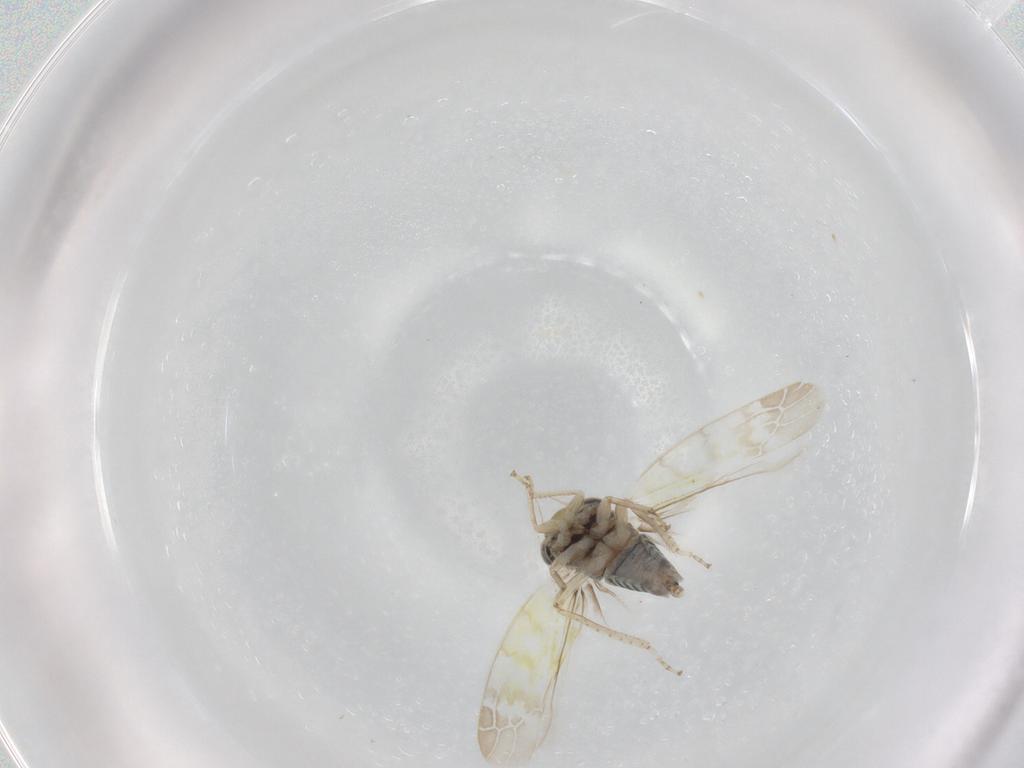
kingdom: Animalia
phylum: Arthropoda
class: Insecta
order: Hemiptera
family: Cicadellidae
